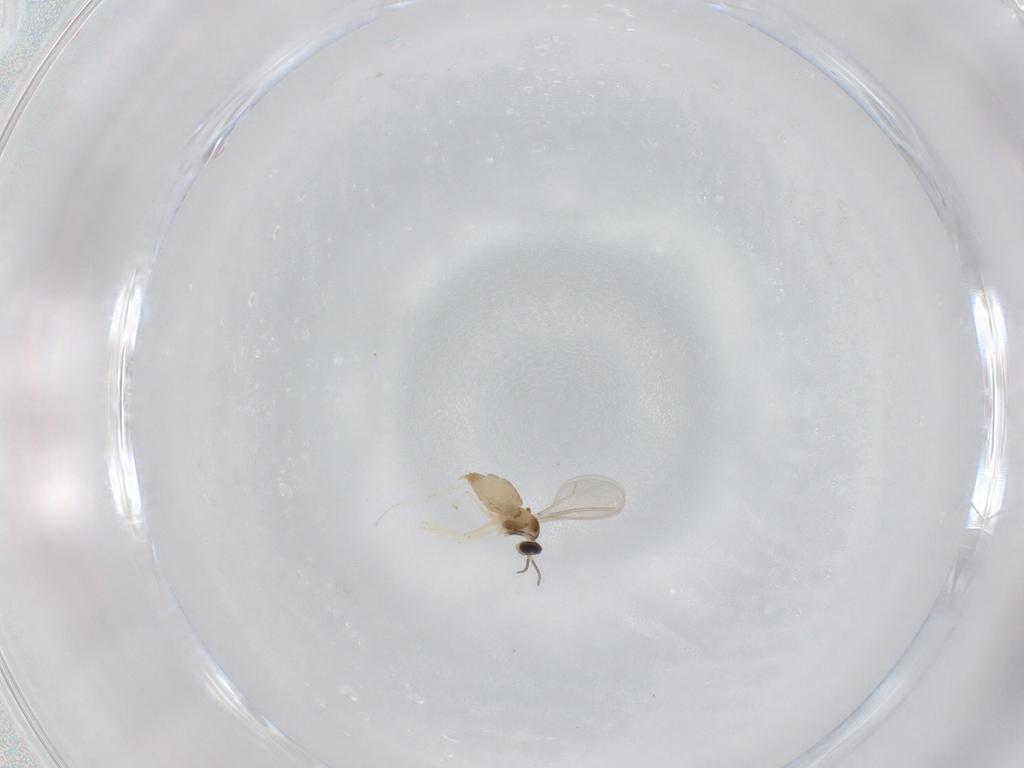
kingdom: Animalia
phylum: Arthropoda
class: Insecta
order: Diptera
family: Cecidomyiidae
